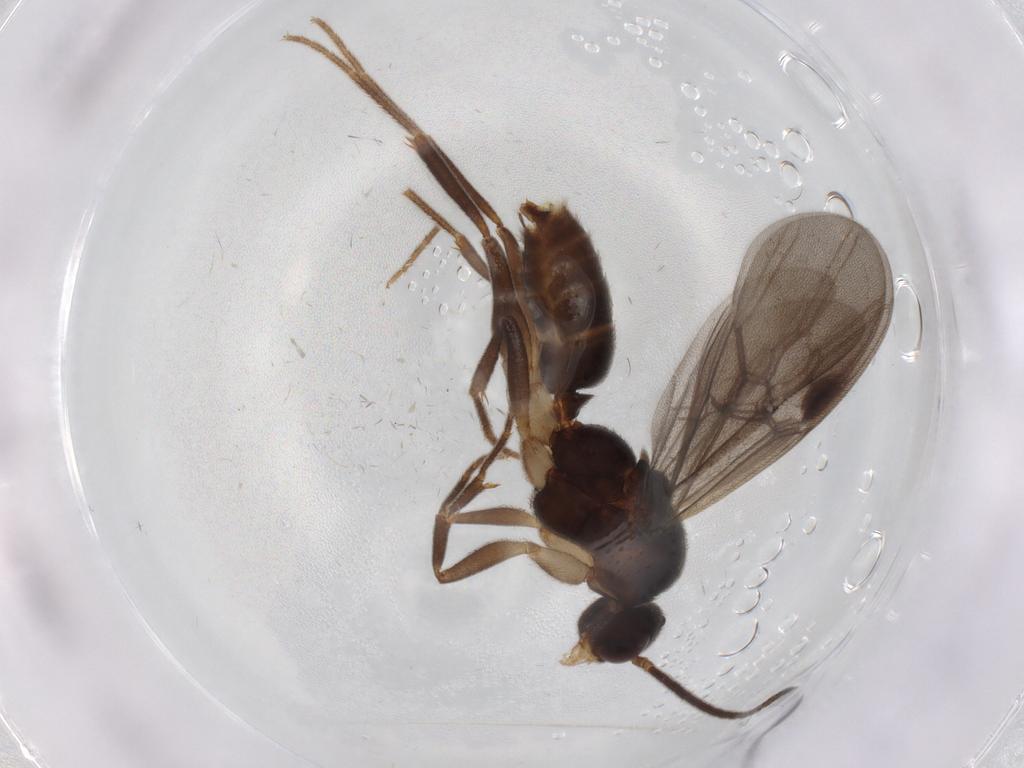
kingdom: Animalia
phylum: Arthropoda
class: Insecta
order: Hymenoptera
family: Formicidae
